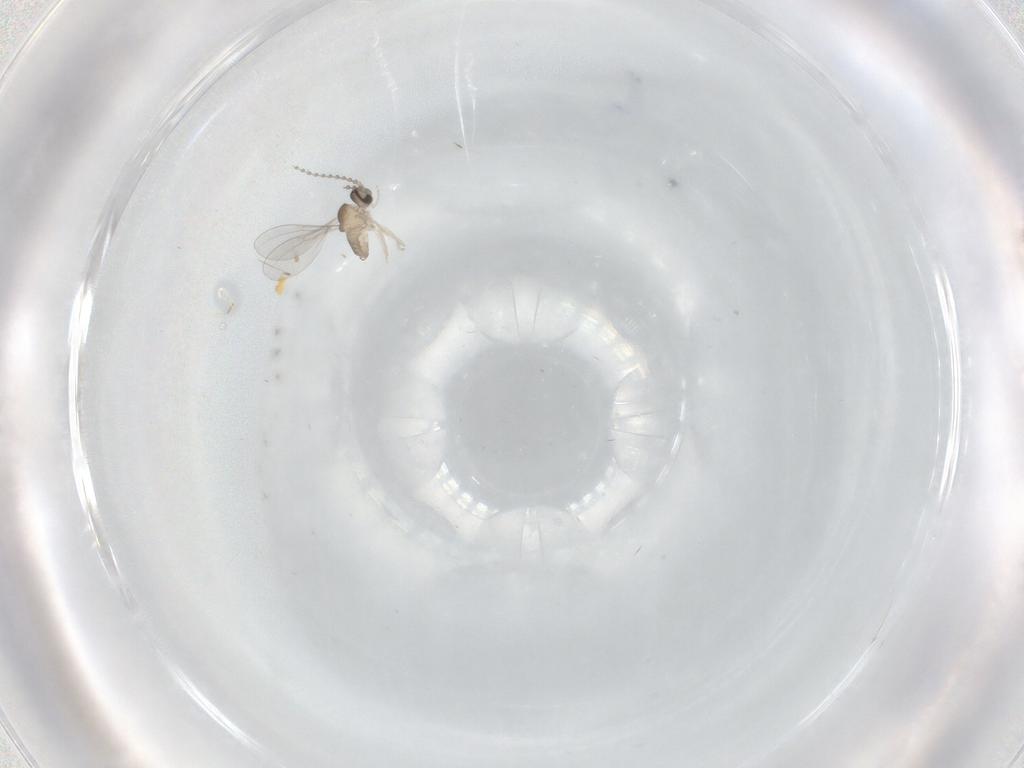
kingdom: Animalia
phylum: Arthropoda
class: Insecta
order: Diptera
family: Cecidomyiidae
